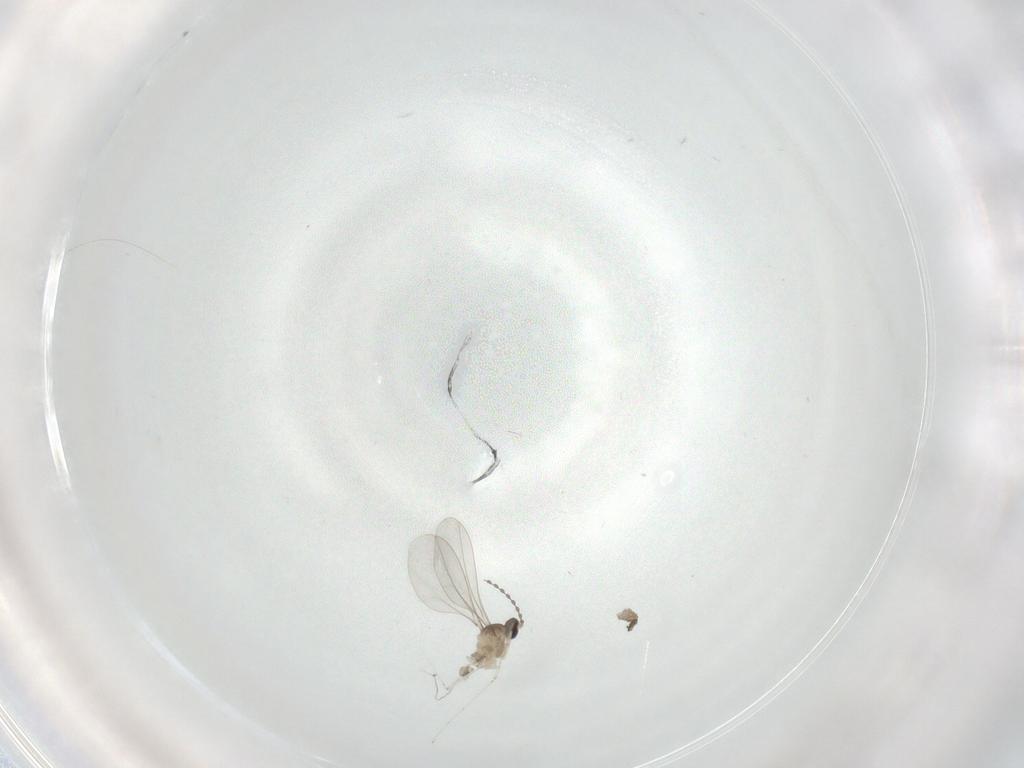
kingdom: Animalia
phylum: Arthropoda
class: Insecta
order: Diptera
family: Cecidomyiidae
